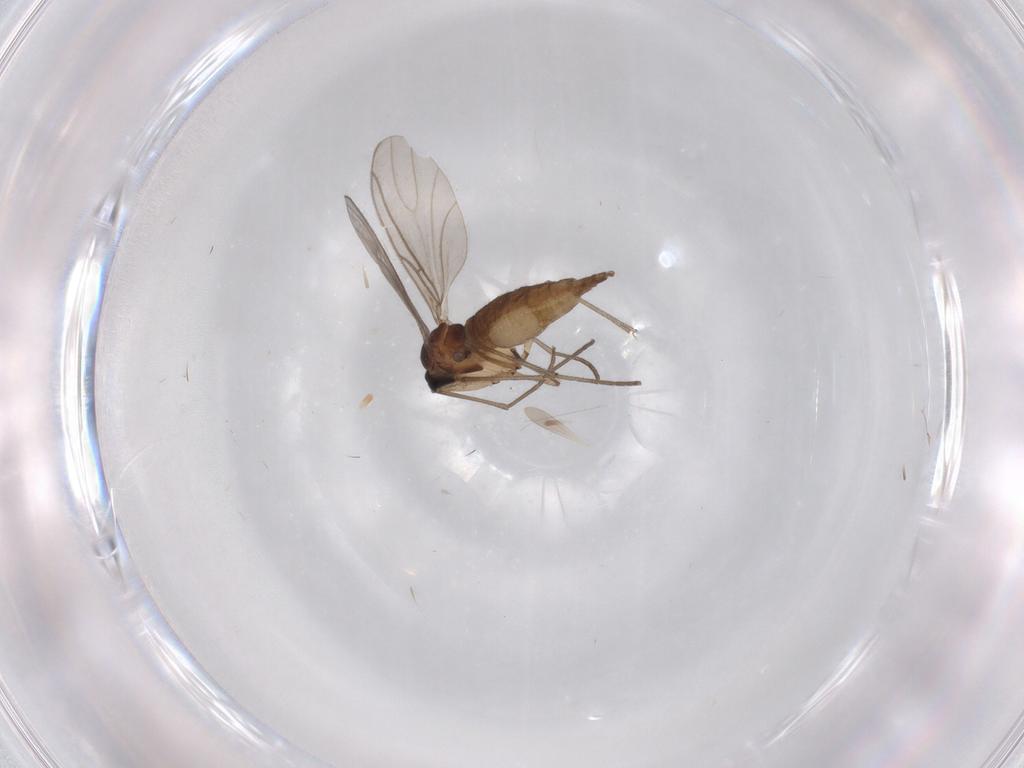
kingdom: Animalia
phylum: Arthropoda
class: Insecta
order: Diptera
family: Sciaridae
